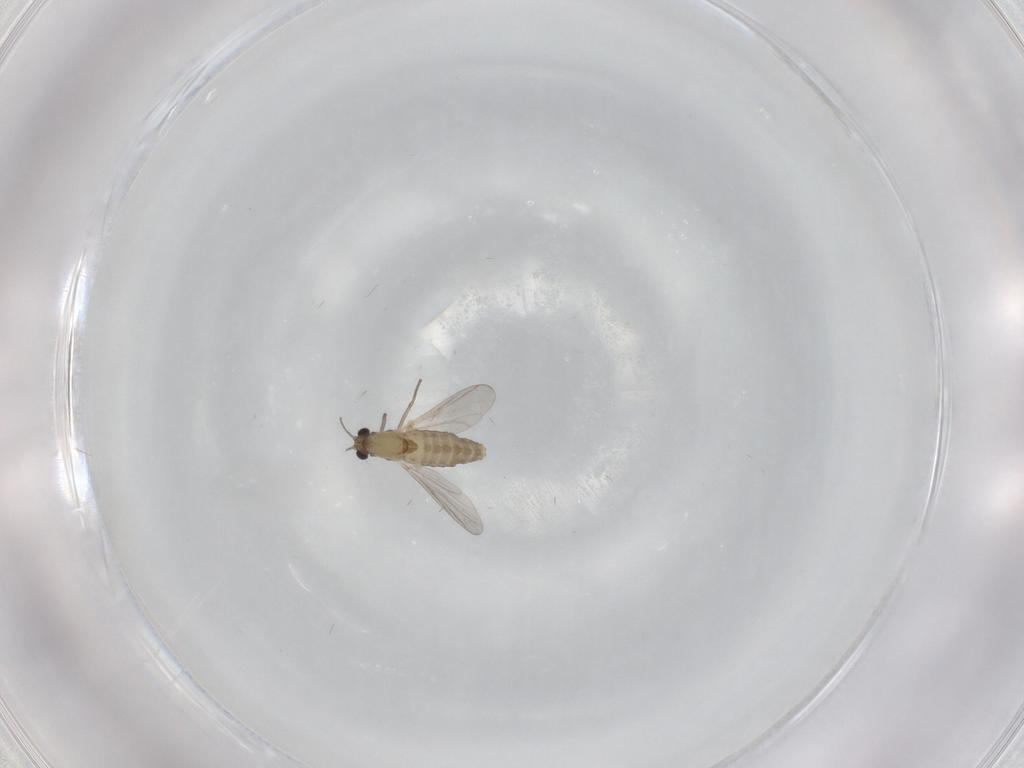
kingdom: Animalia
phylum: Arthropoda
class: Insecta
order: Diptera
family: Chironomidae
